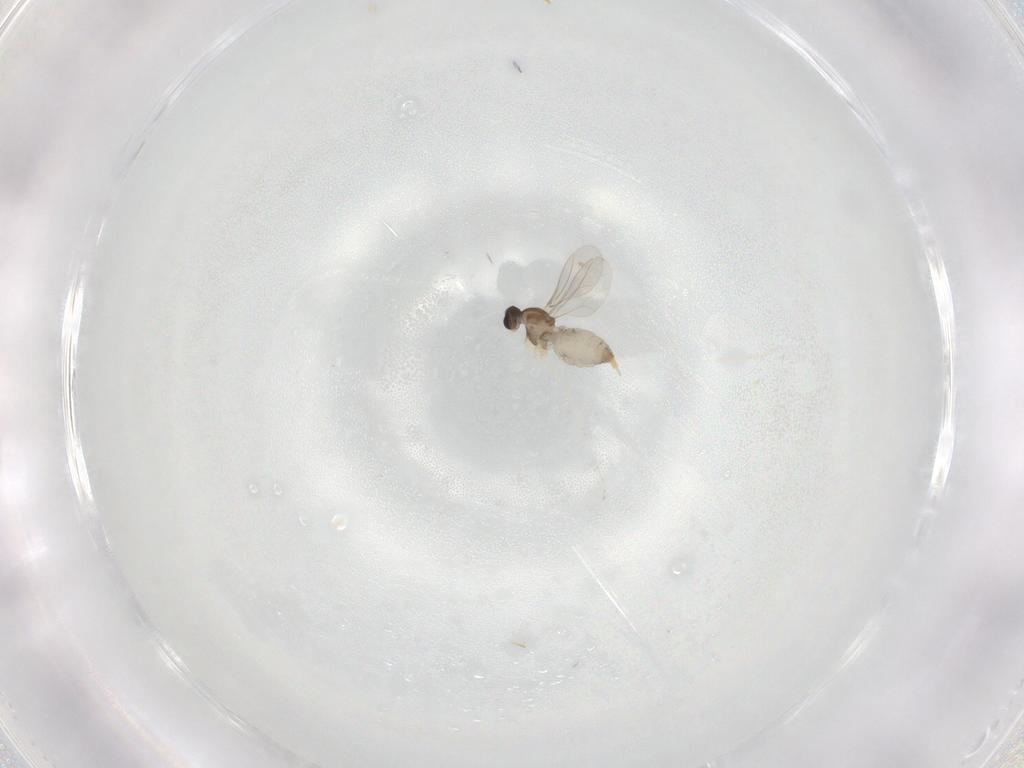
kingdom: Animalia
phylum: Arthropoda
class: Insecta
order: Diptera
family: Cecidomyiidae
